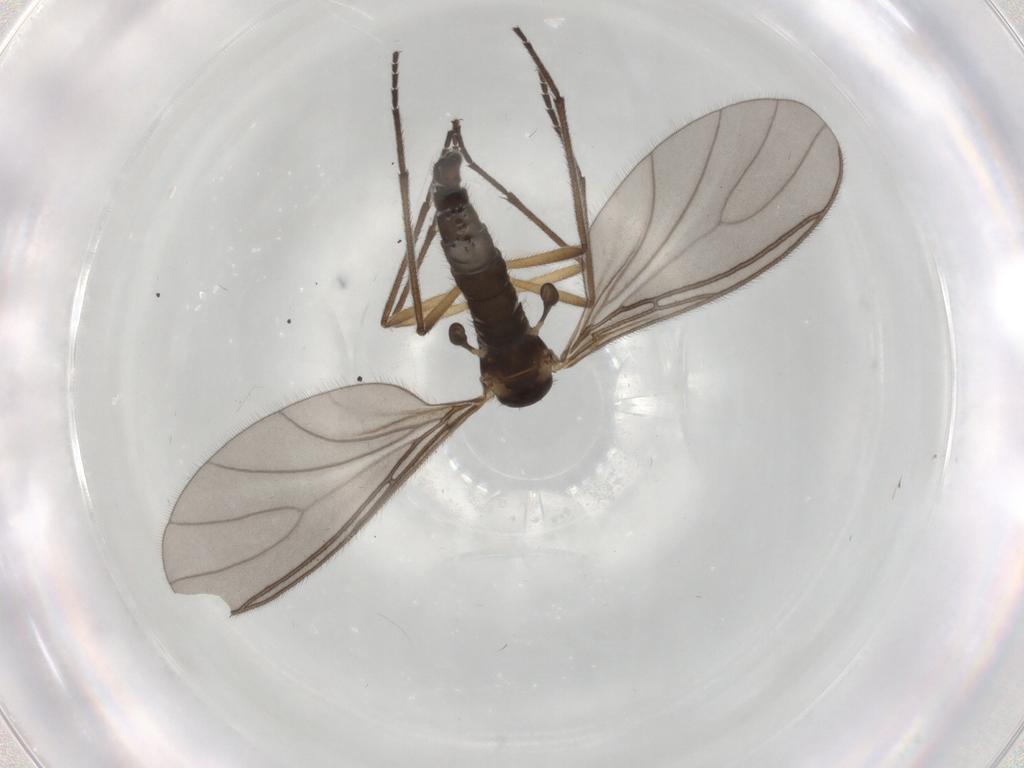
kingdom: Animalia
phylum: Arthropoda
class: Insecta
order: Diptera
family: Sciaridae
